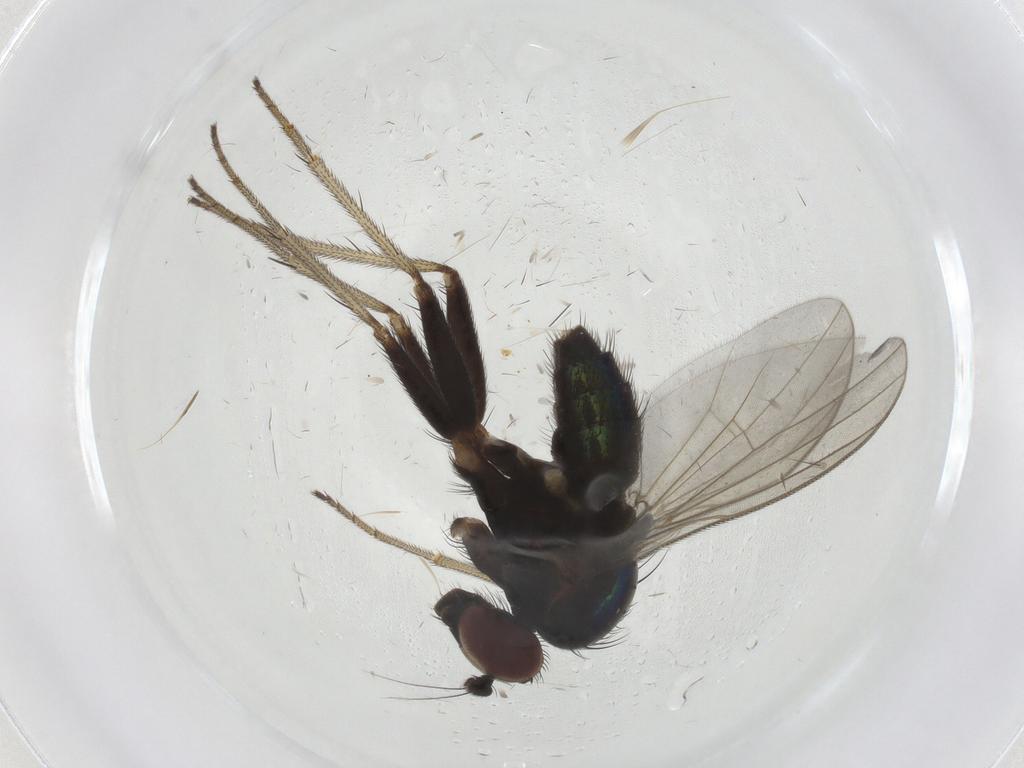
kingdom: Animalia
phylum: Arthropoda
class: Insecta
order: Diptera
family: Dolichopodidae
